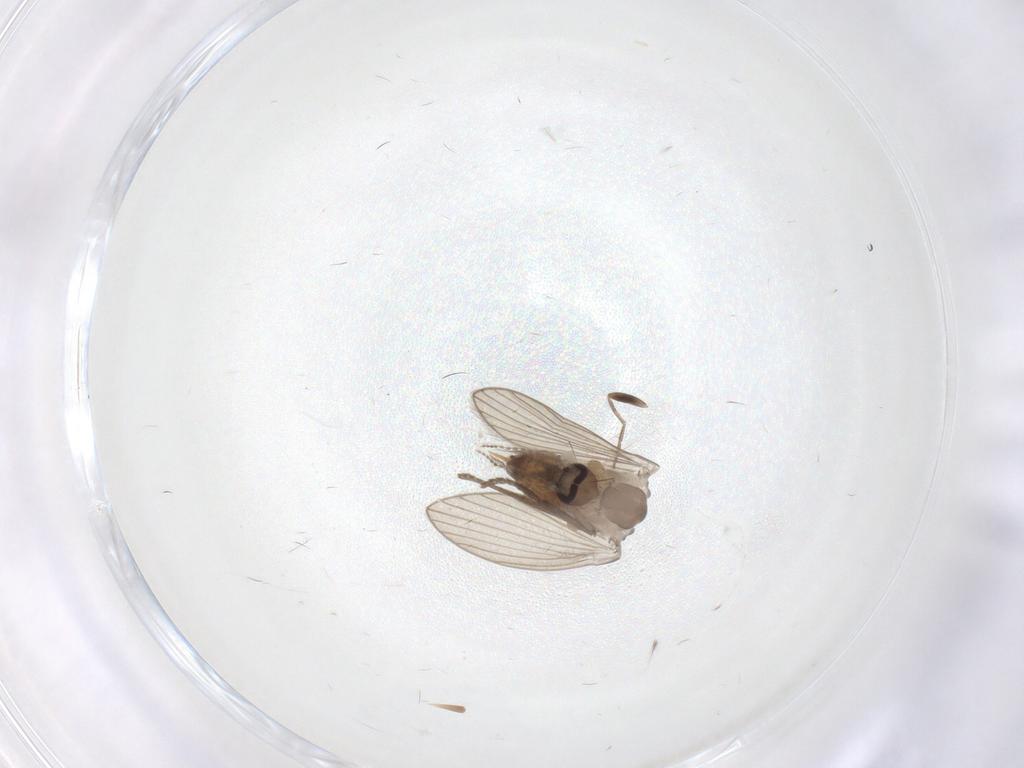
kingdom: Animalia
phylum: Arthropoda
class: Insecta
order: Diptera
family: Psychodidae
